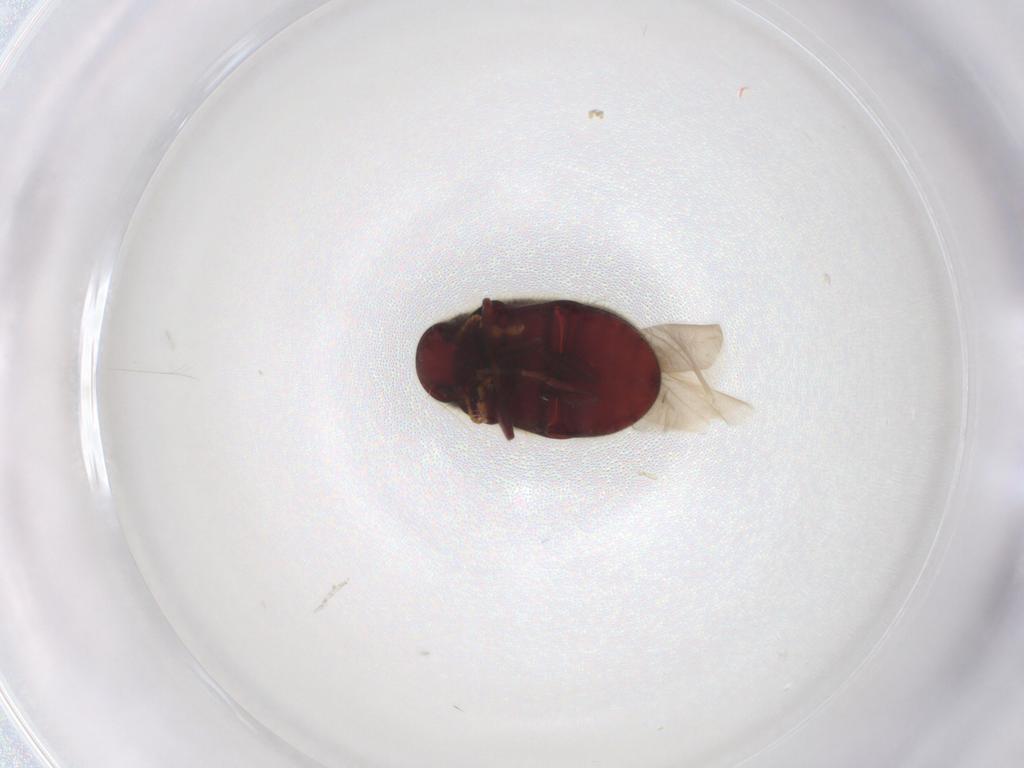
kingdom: Animalia
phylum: Arthropoda
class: Insecta
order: Coleoptera
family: Ptinidae
